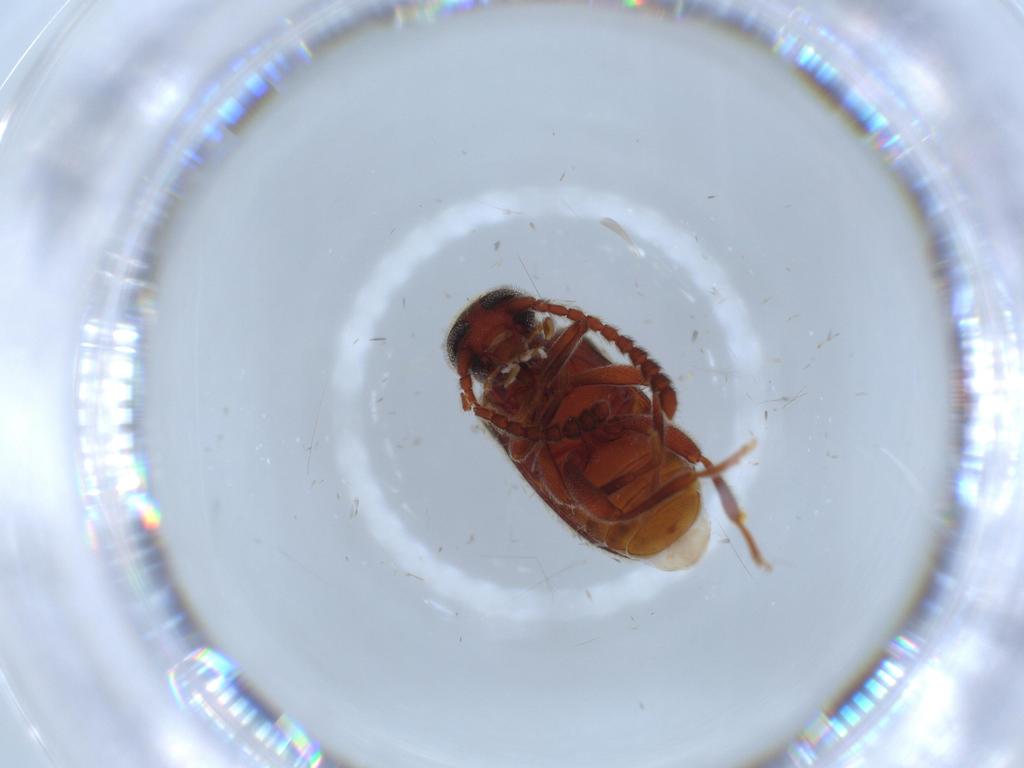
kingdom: Animalia
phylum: Arthropoda
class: Insecta
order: Coleoptera
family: Aderidae
